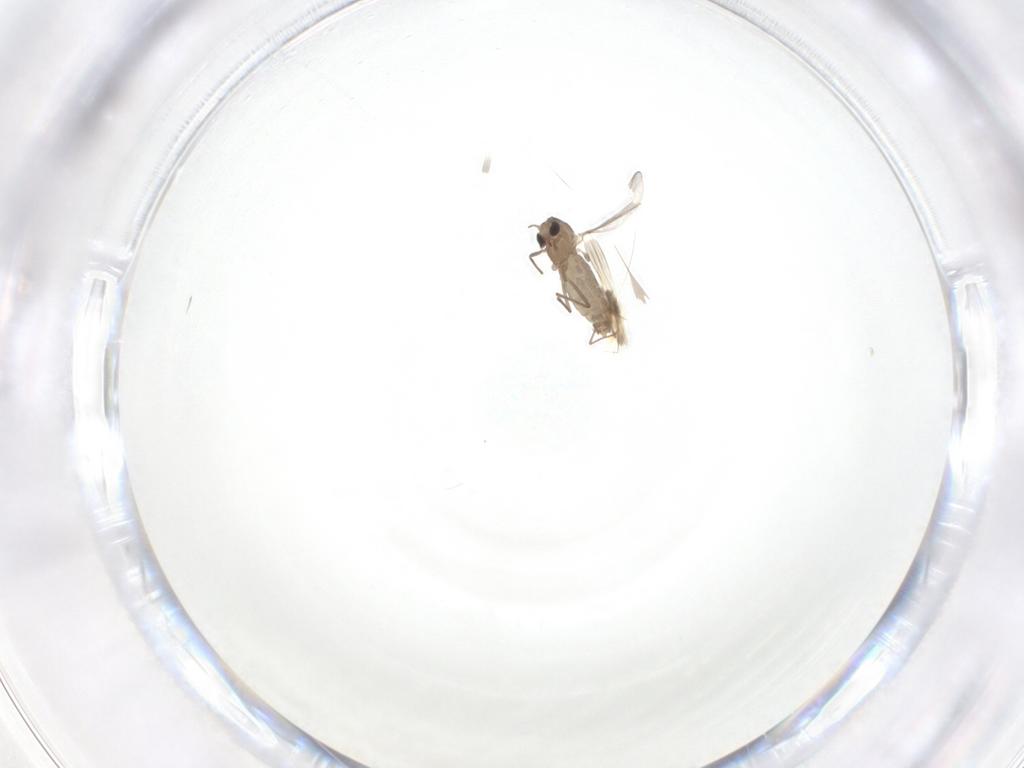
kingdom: Animalia
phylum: Arthropoda
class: Insecta
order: Diptera
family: Chironomidae
